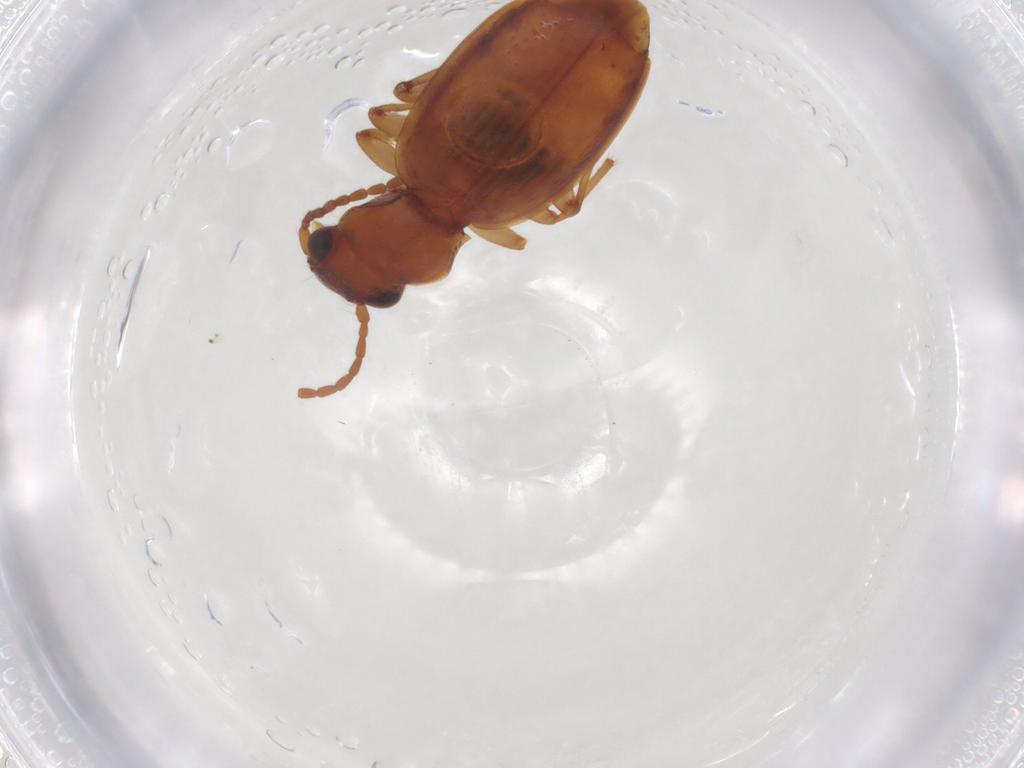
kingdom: Animalia
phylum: Arthropoda
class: Insecta
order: Coleoptera
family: Carabidae
